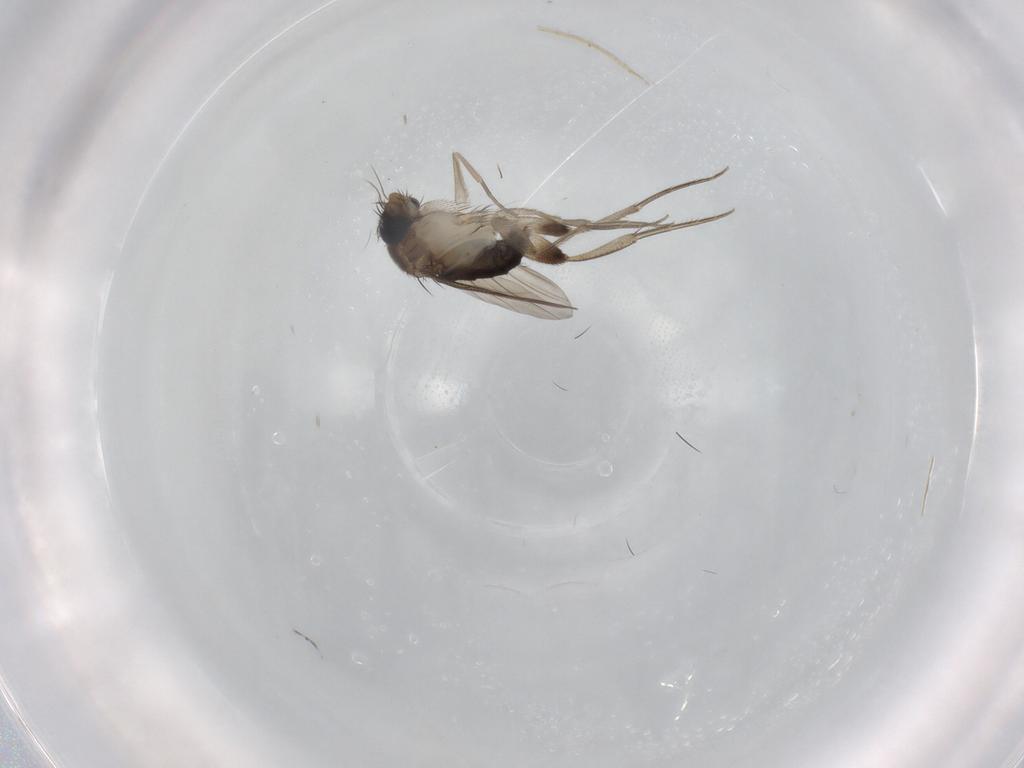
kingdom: Animalia
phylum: Arthropoda
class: Insecta
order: Diptera
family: Phoridae
